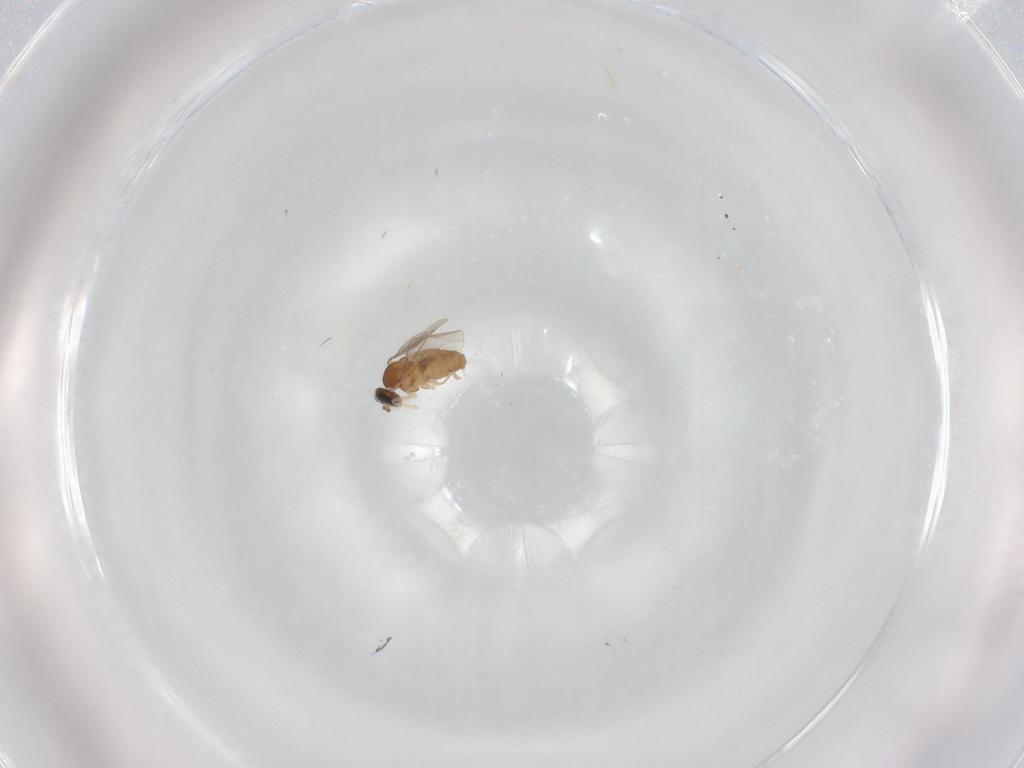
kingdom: Animalia
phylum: Arthropoda
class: Insecta
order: Diptera
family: Cecidomyiidae
